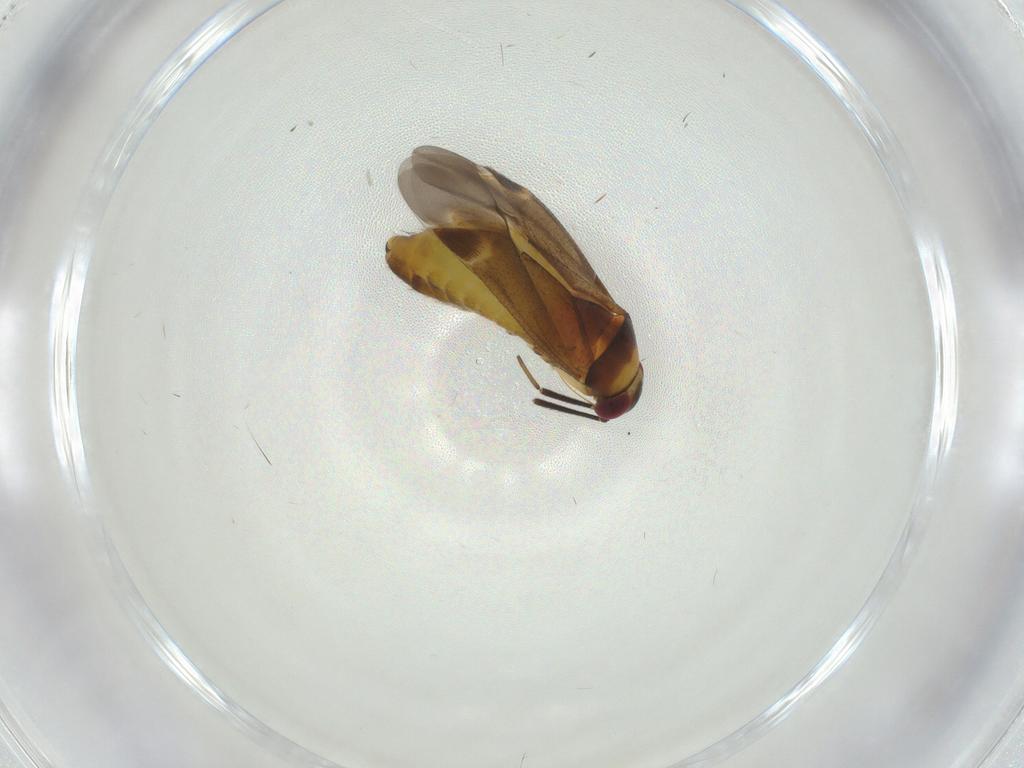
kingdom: Animalia
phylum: Arthropoda
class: Insecta
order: Hymenoptera
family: Braconidae
